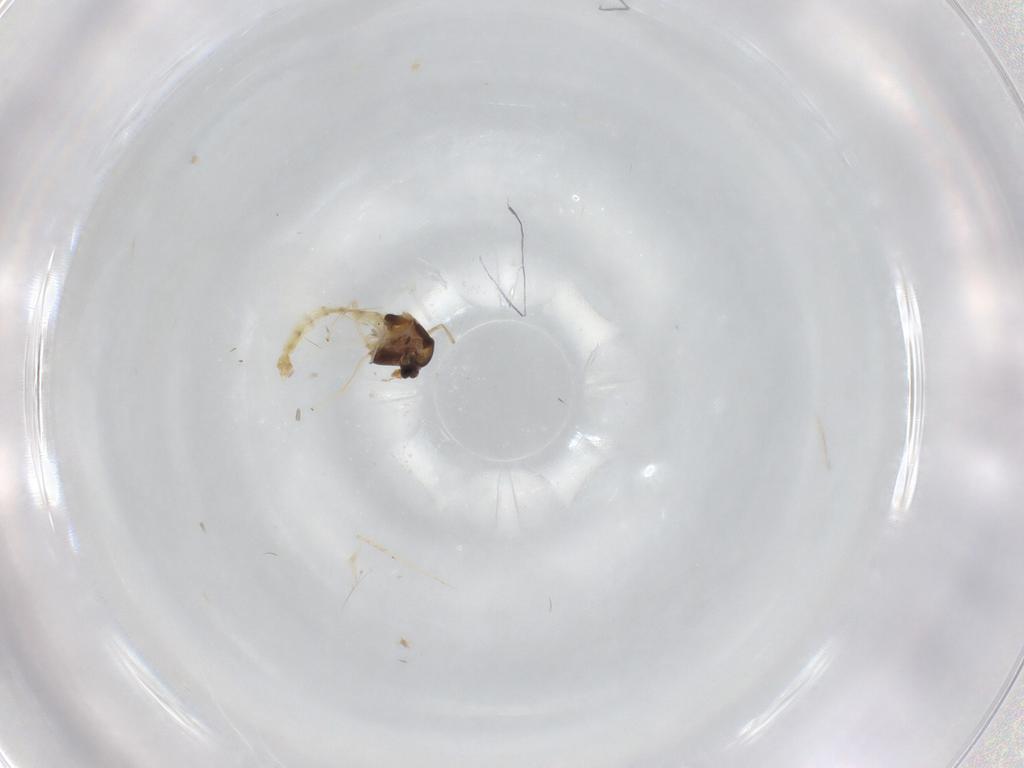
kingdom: Animalia
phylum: Arthropoda
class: Insecta
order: Diptera
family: Chironomidae
